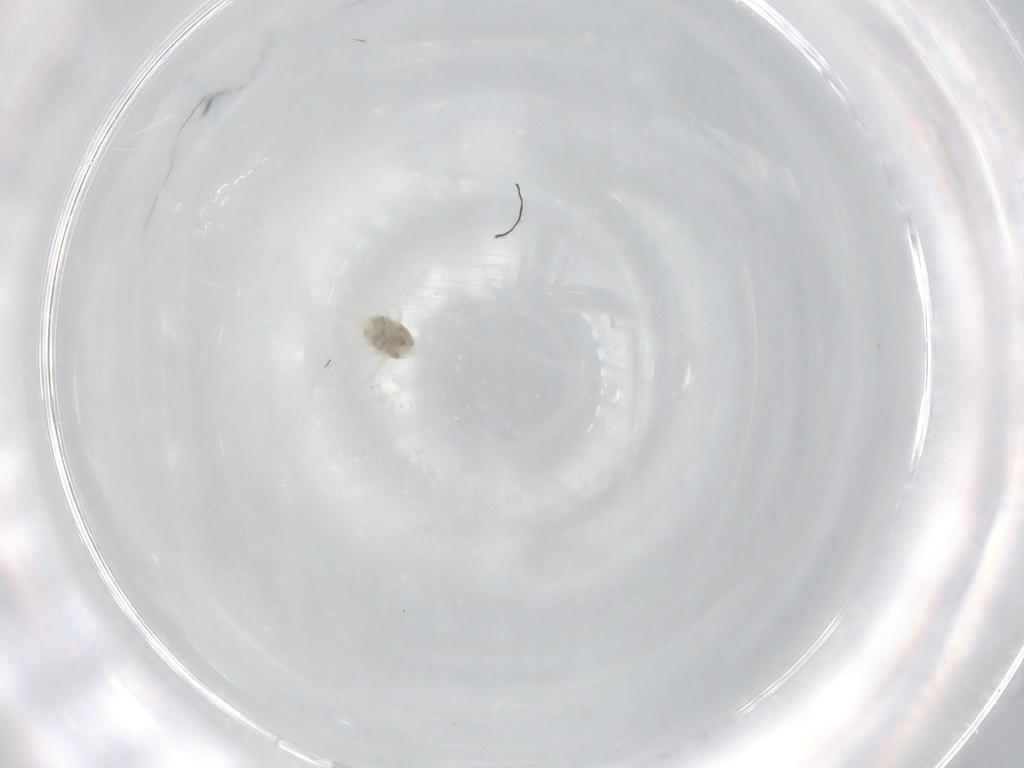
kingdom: Animalia
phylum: Arthropoda
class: Arachnida
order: Mesostigmata
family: Melicharidae
